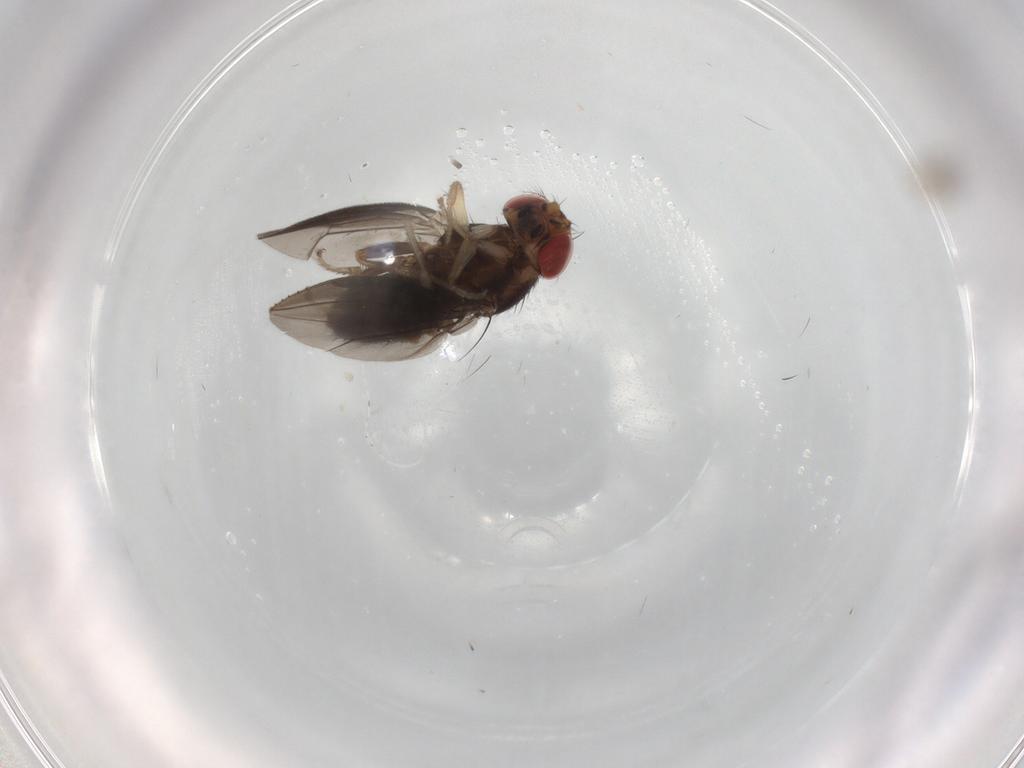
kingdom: Animalia
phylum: Arthropoda
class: Insecta
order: Diptera
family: Drosophilidae
